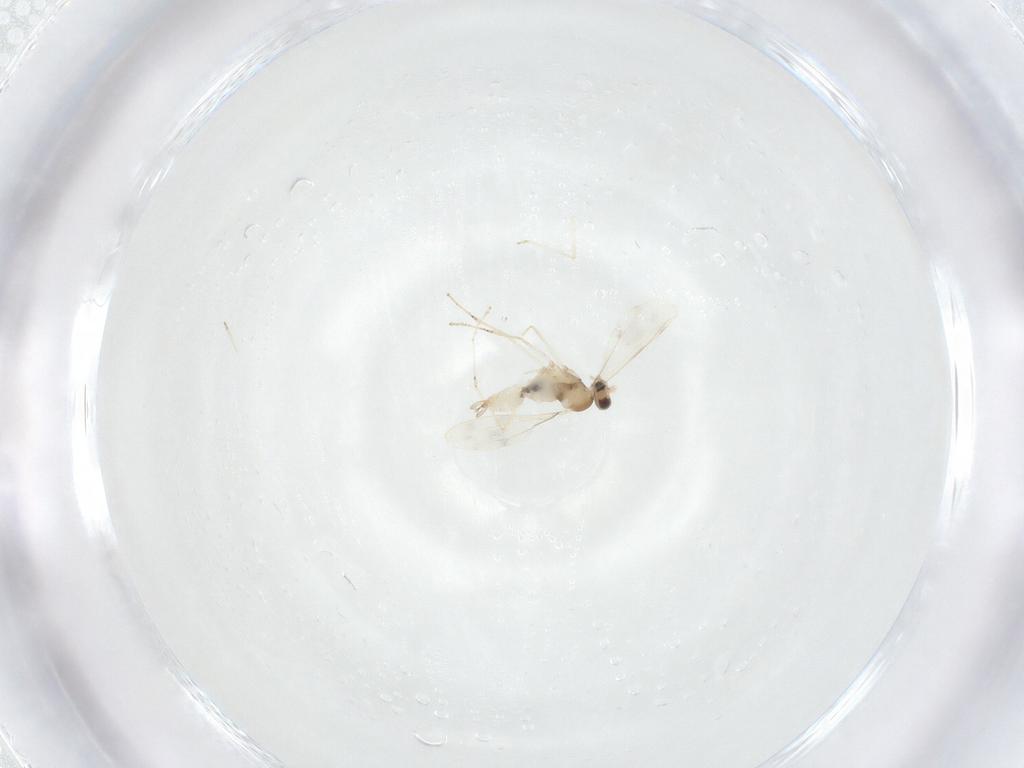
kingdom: Animalia
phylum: Arthropoda
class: Insecta
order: Diptera
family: Cecidomyiidae
